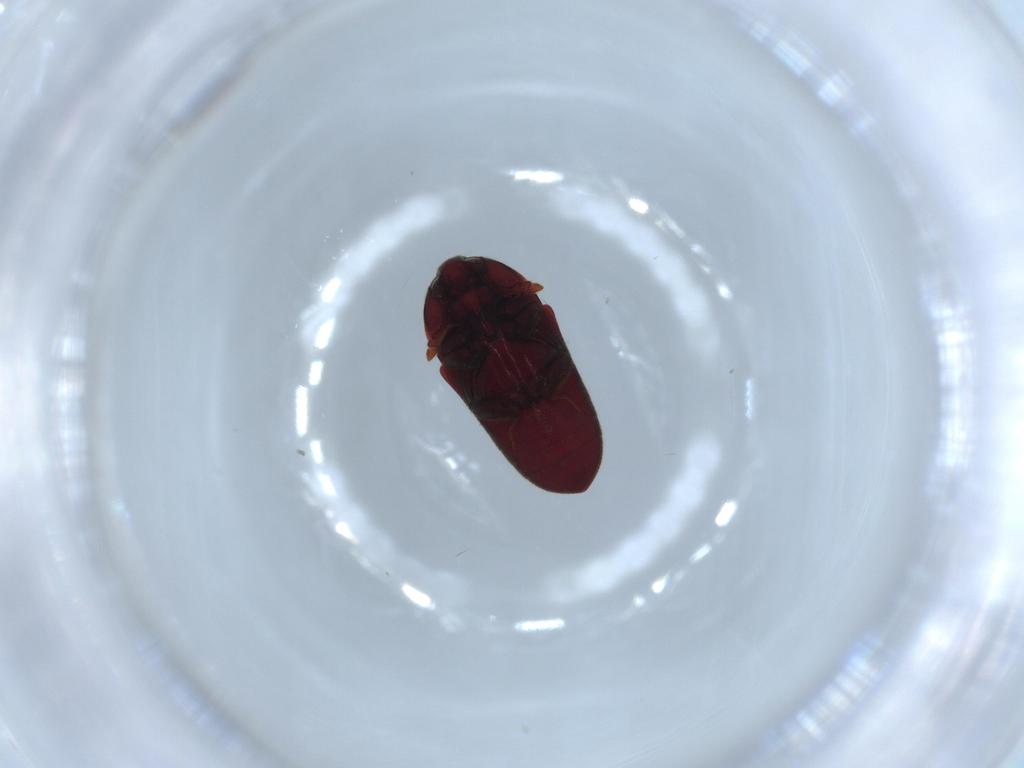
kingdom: Animalia
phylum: Arthropoda
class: Insecta
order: Coleoptera
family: Throscidae
